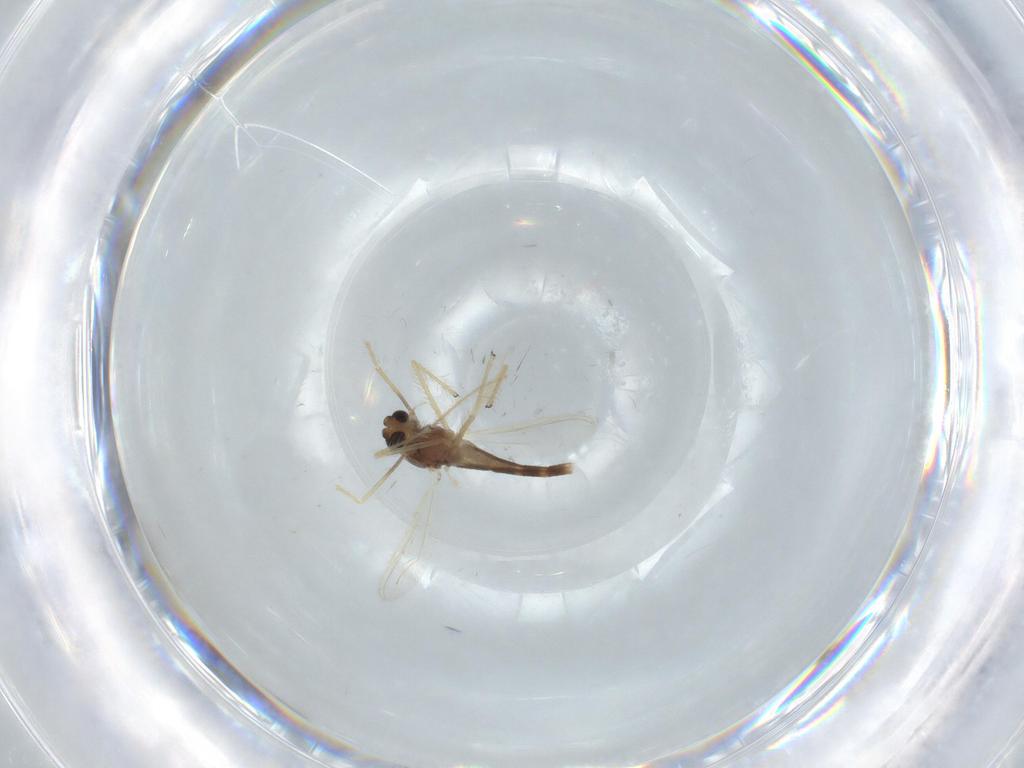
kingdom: Animalia
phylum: Arthropoda
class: Insecta
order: Diptera
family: Chironomidae
